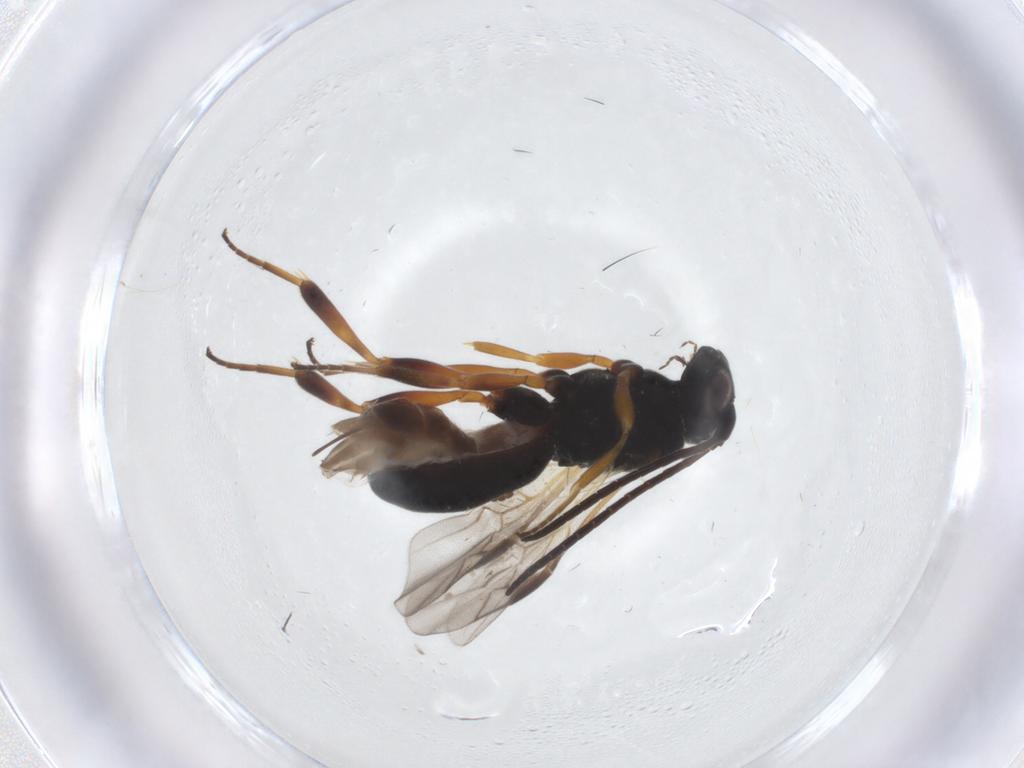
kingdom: Animalia
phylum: Arthropoda
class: Insecta
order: Hymenoptera
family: Braconidae
